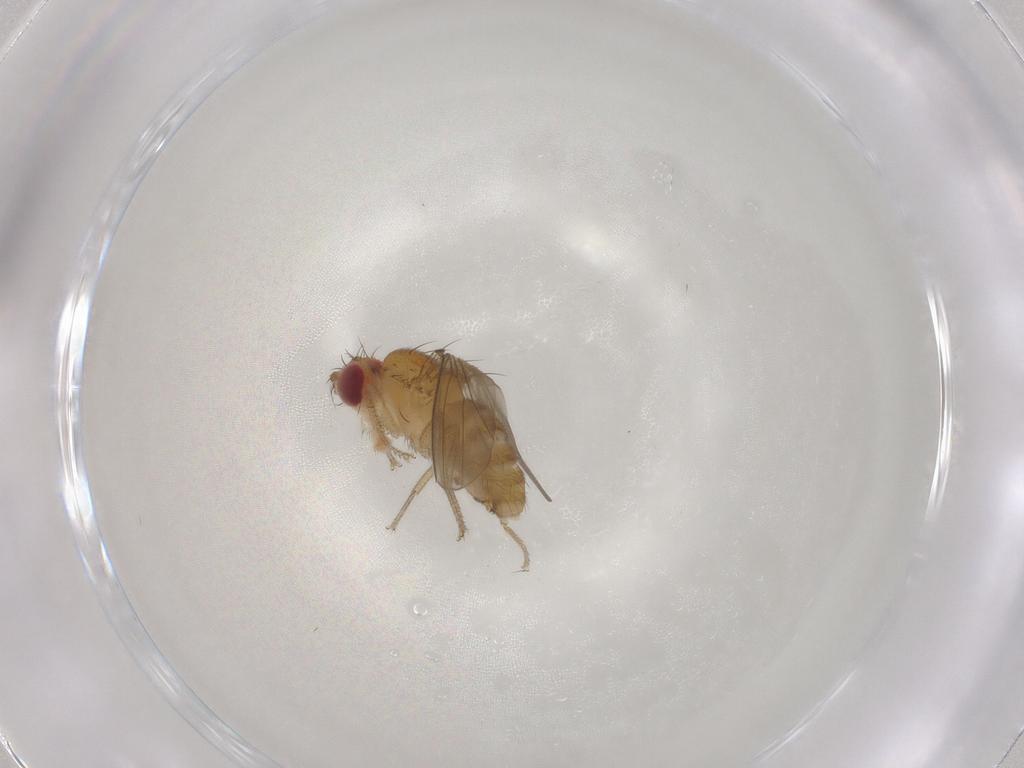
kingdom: Animalia
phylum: Arthropoda
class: Insecta
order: Diptera
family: Drosophilidae
